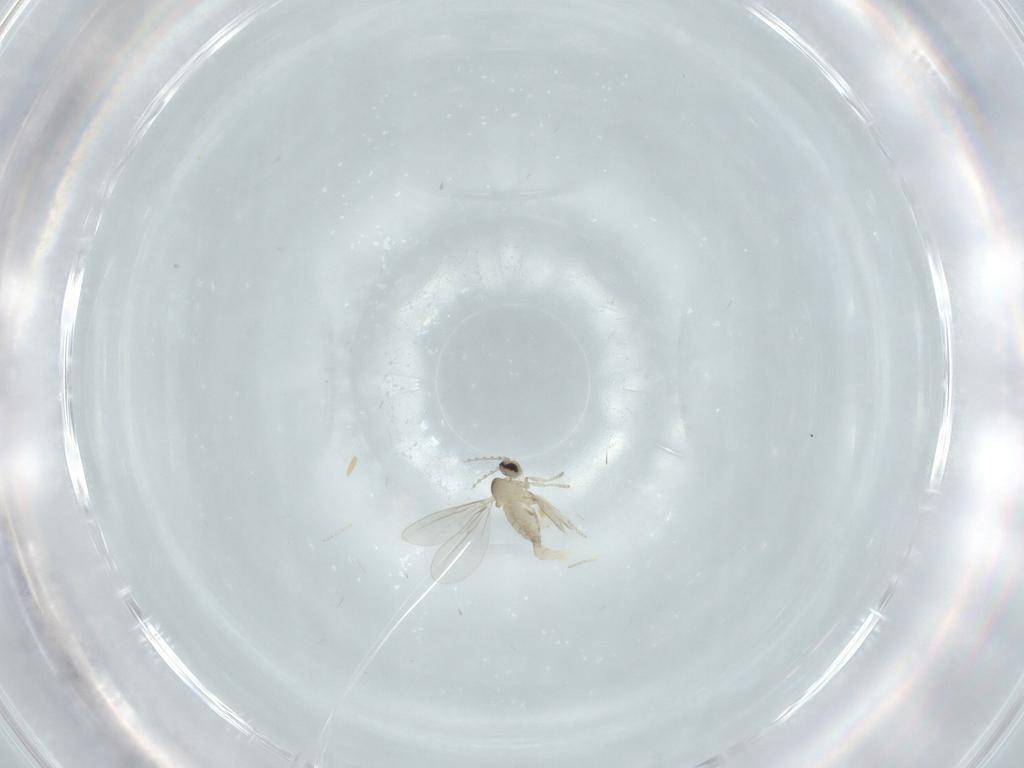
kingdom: Animalia
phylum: Arthropoda
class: Insecta
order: Diptera
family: Cecidomyiidae
